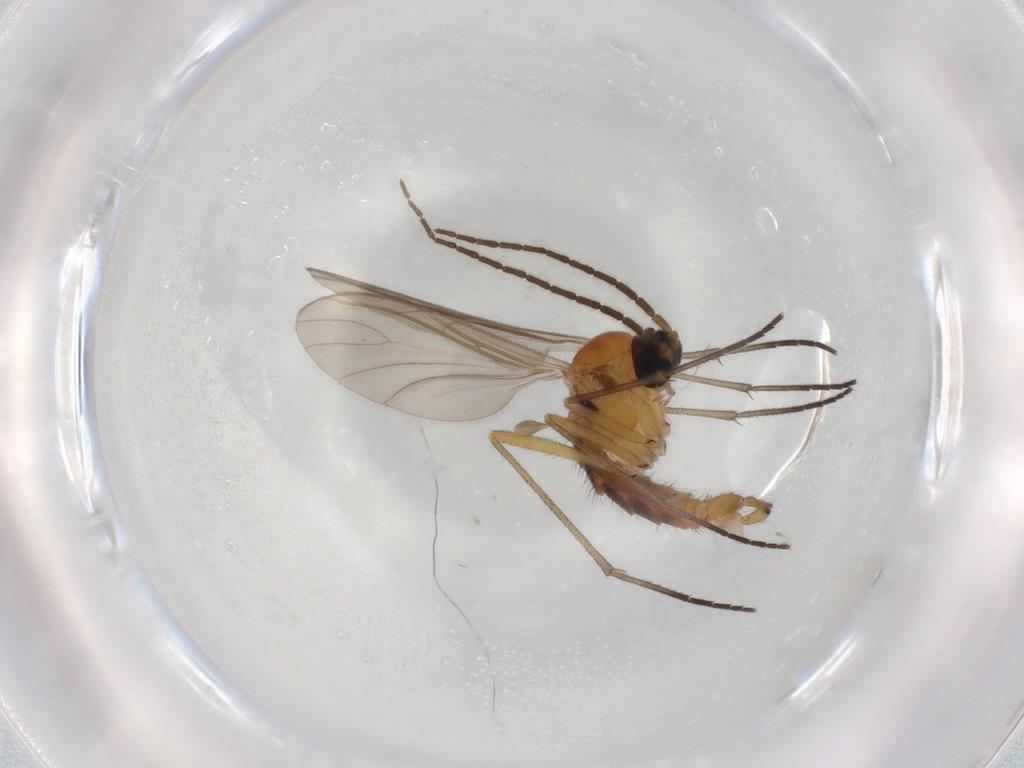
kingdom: Animalia
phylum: Arthropoda
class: Insecta
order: Diptera
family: Sciaridae
